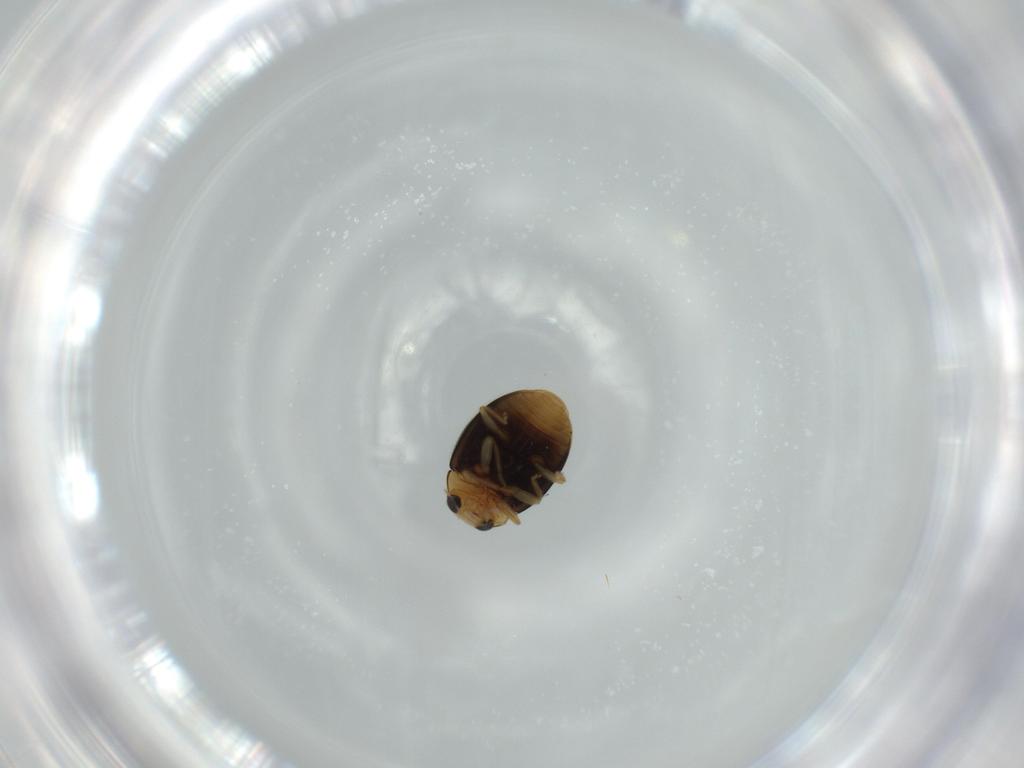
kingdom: Animalia
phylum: Arthropoda
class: Insecta
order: Coleoptera
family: Coccinellidae
